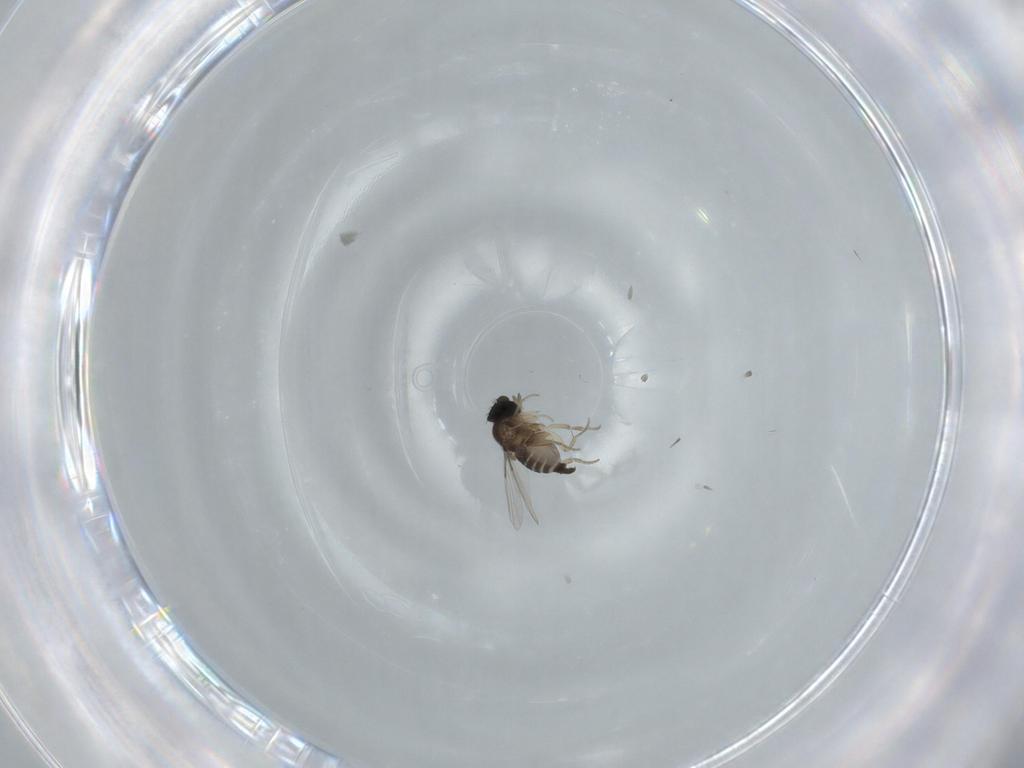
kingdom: Animalia
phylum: Arthropoda
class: Insecta
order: Diptera
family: Phoridae
